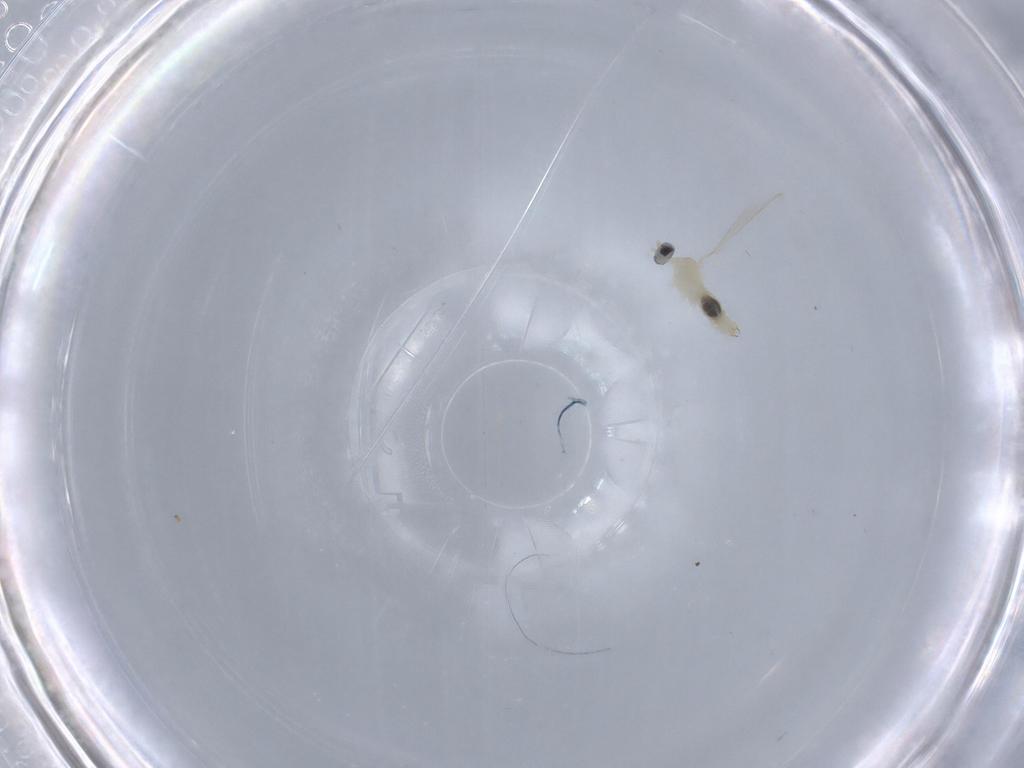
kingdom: Animalia
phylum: Arthropoda
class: Insecta
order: Diptera
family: Cecidomyiidae
